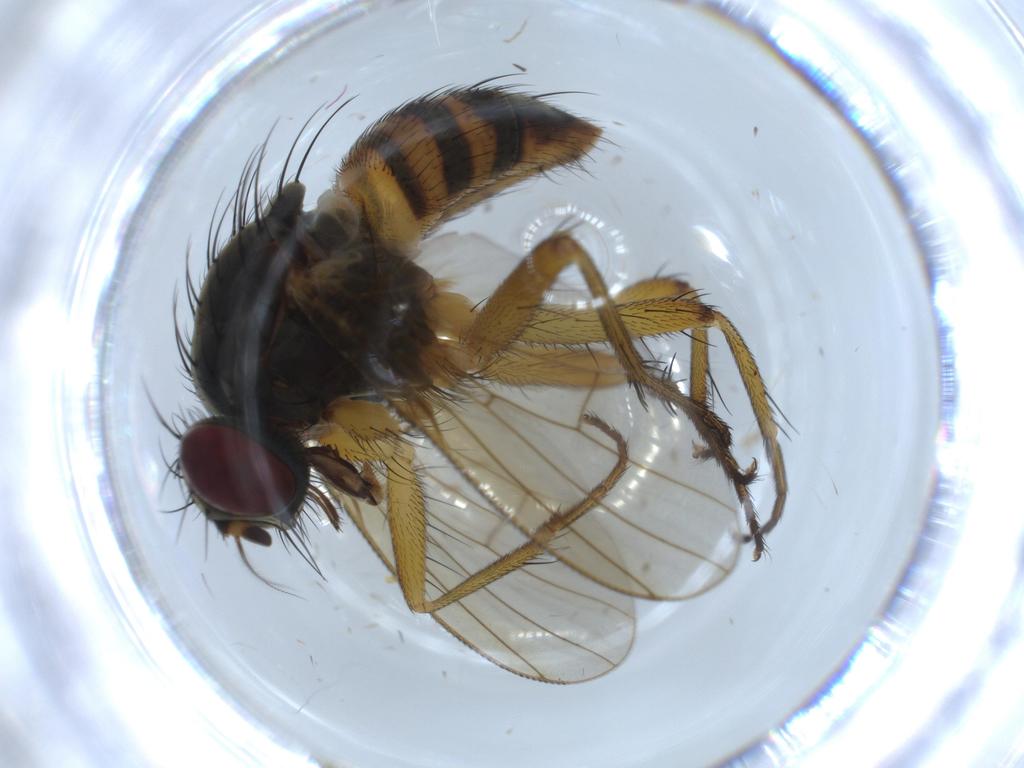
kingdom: Animalia
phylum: Arthropoda
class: Insecta
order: Diptera
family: Muscidae
